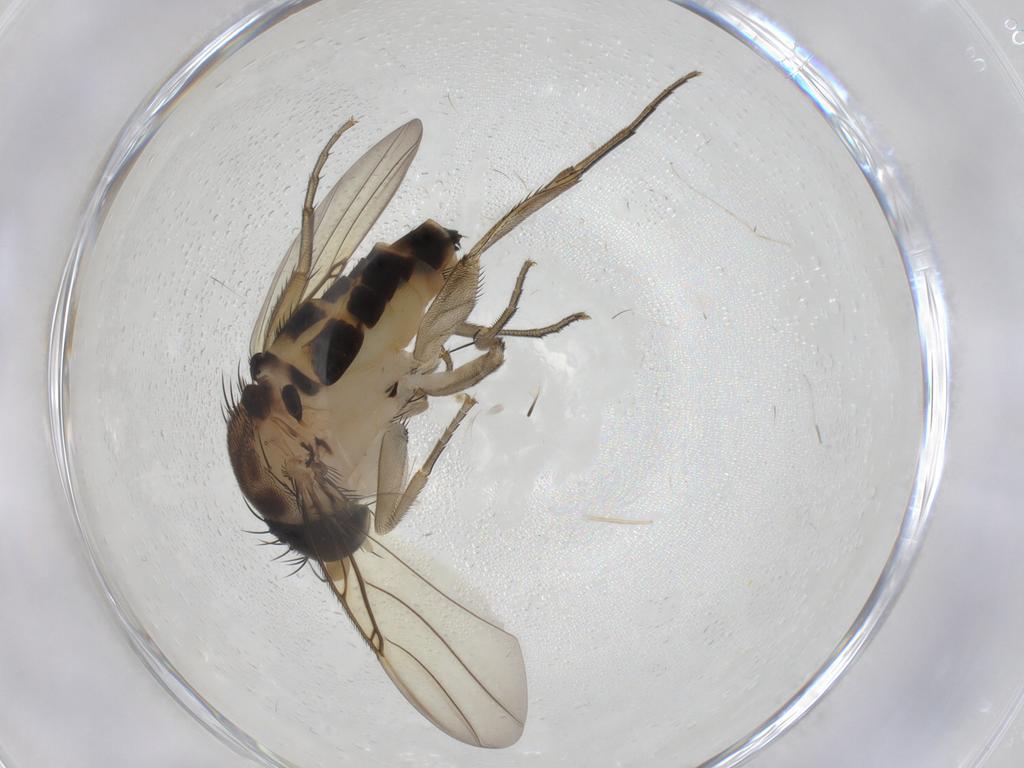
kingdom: Animalia
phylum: Arthropoda
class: Insecta
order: Diptera
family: Phoridae
